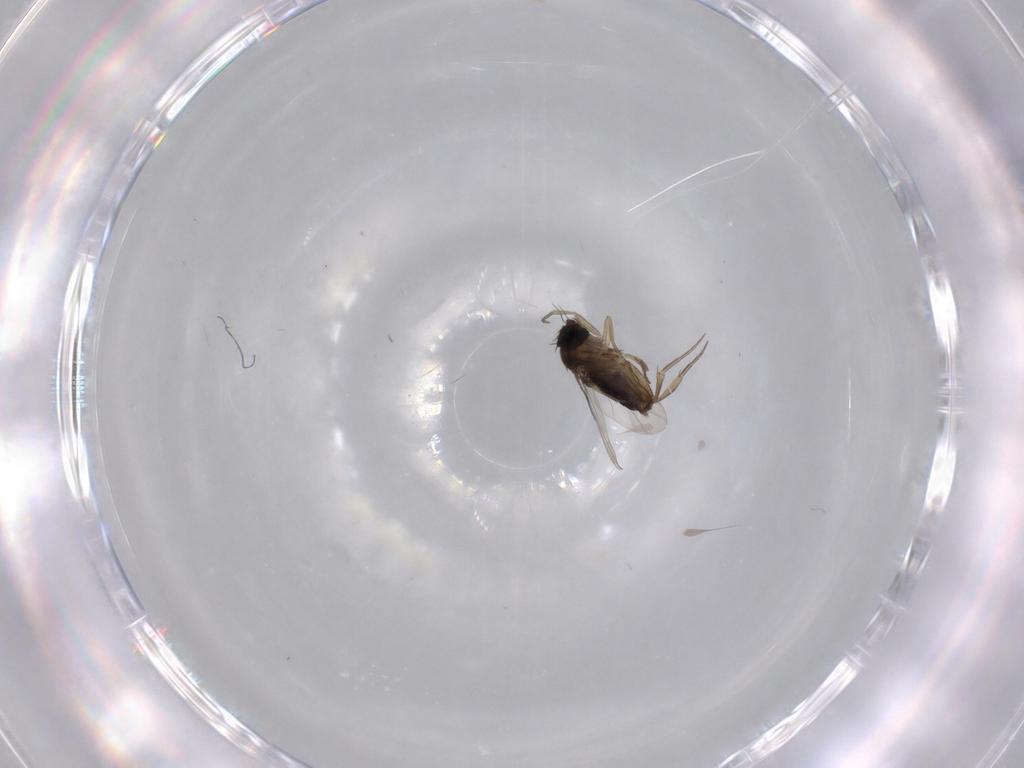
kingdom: Animalia
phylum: Arthropoda
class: Insecta
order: Diptera
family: Phoridae
